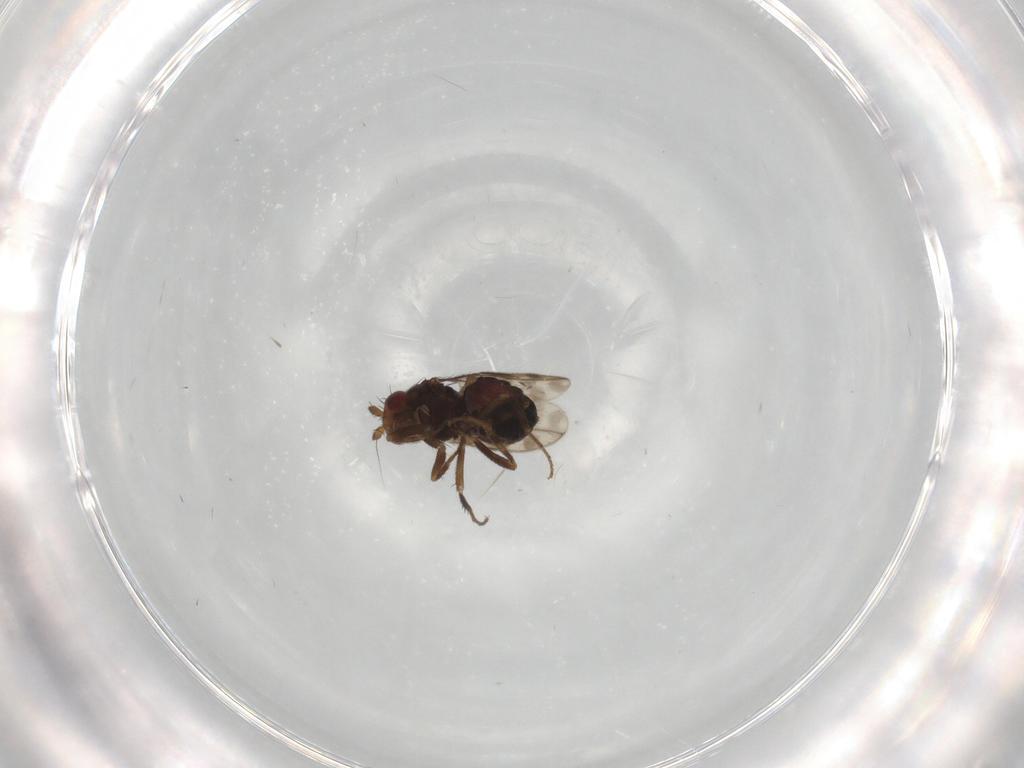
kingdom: Animalia
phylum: Arthropoda
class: Insecta
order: Diptera
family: Sphaeroceridae
